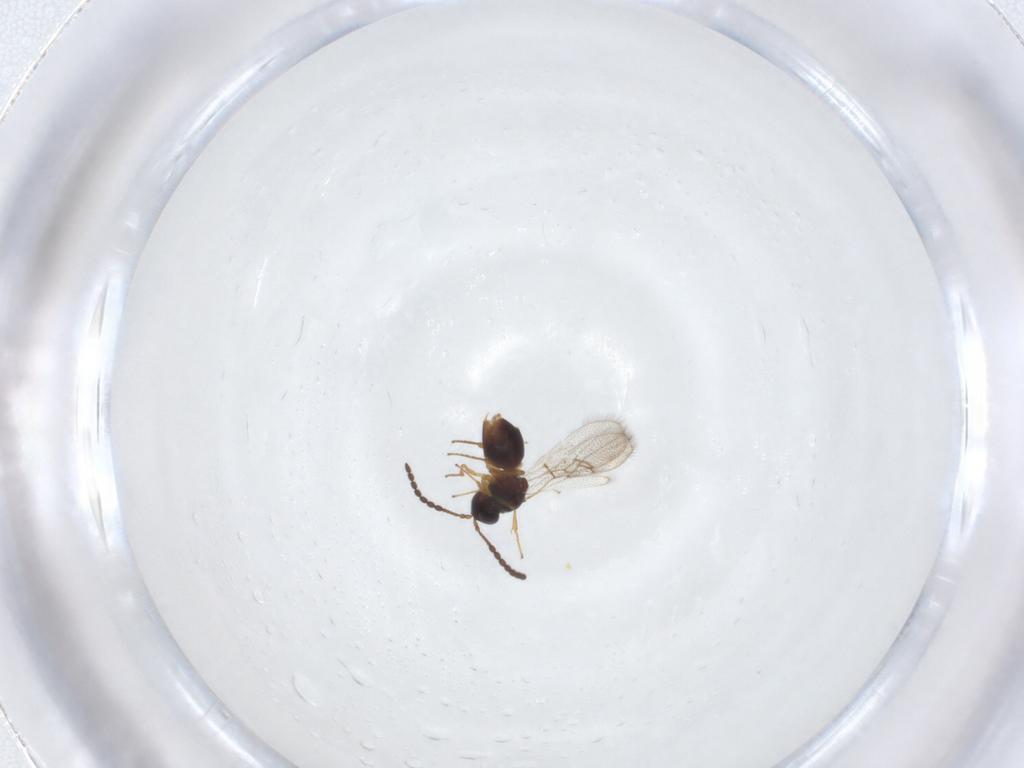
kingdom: Animalia
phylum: Arthropoda
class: Insecta
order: Hymenoptera
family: Figitidae
